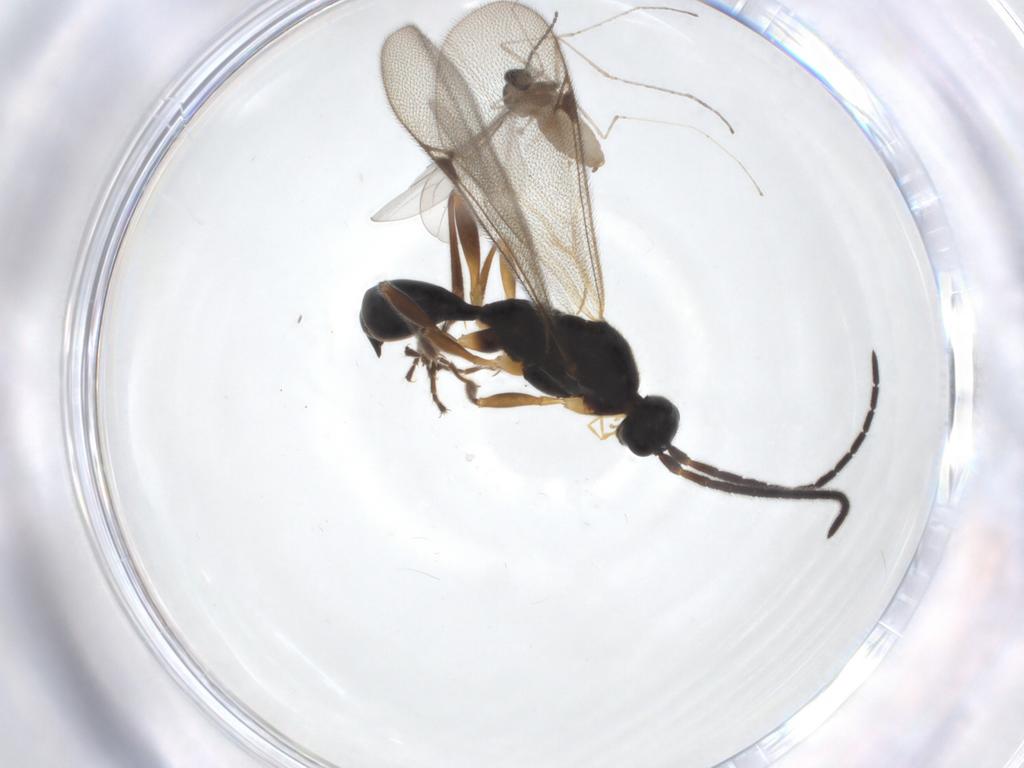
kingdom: Animalia
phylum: Arthropoda
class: Insecta
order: Diptera
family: Cecidomyiidae
